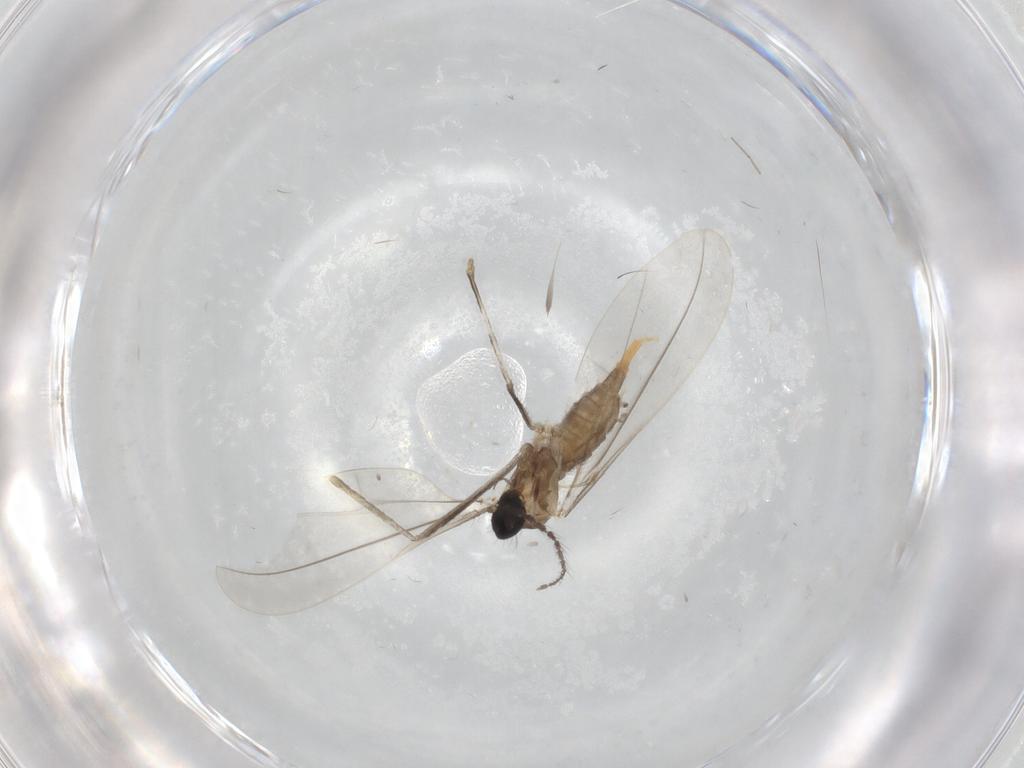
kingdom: Animalia
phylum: Arthropoda
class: Insecta
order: Diptera
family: Cecidomyiidae
